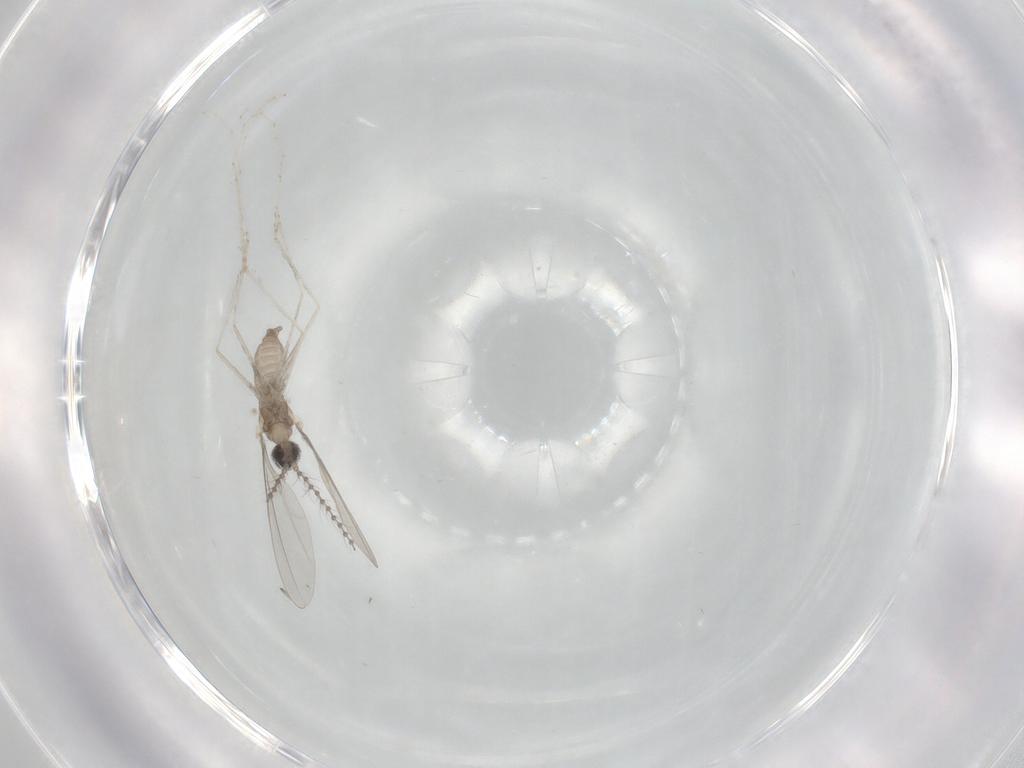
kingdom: Animalia
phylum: Arthropoda
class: Insecta
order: Diptera
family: Cecidomyiidae
